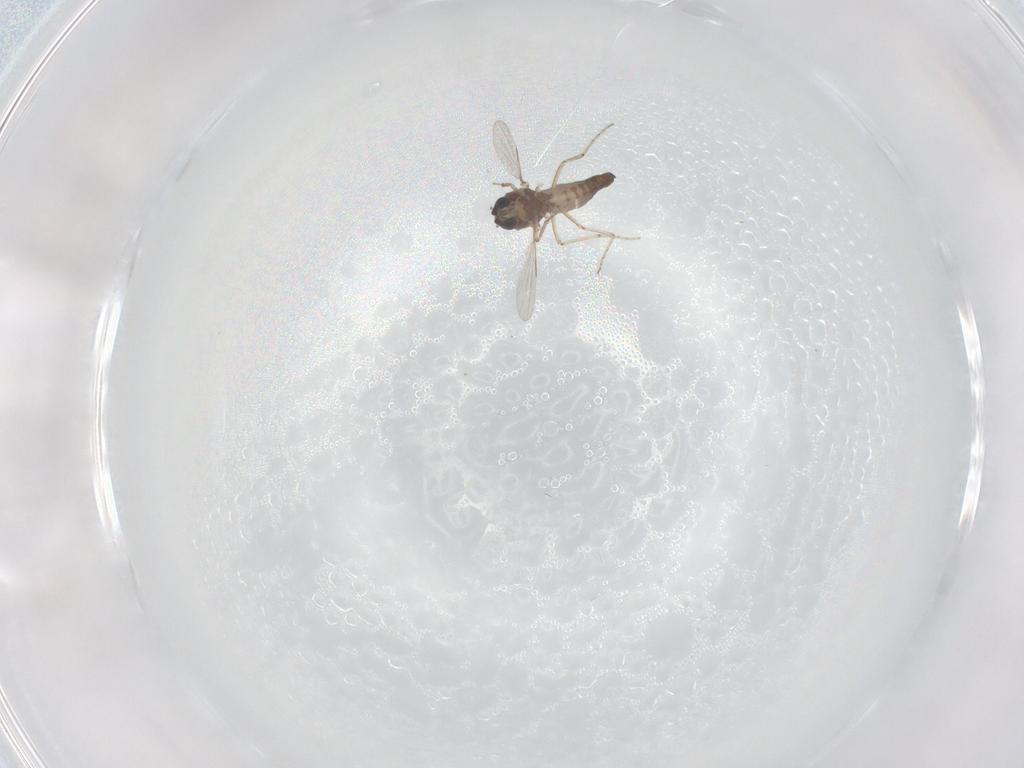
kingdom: Animalia
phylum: Arthropoda
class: Insecta
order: Diptera
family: Ceratopogonidae
